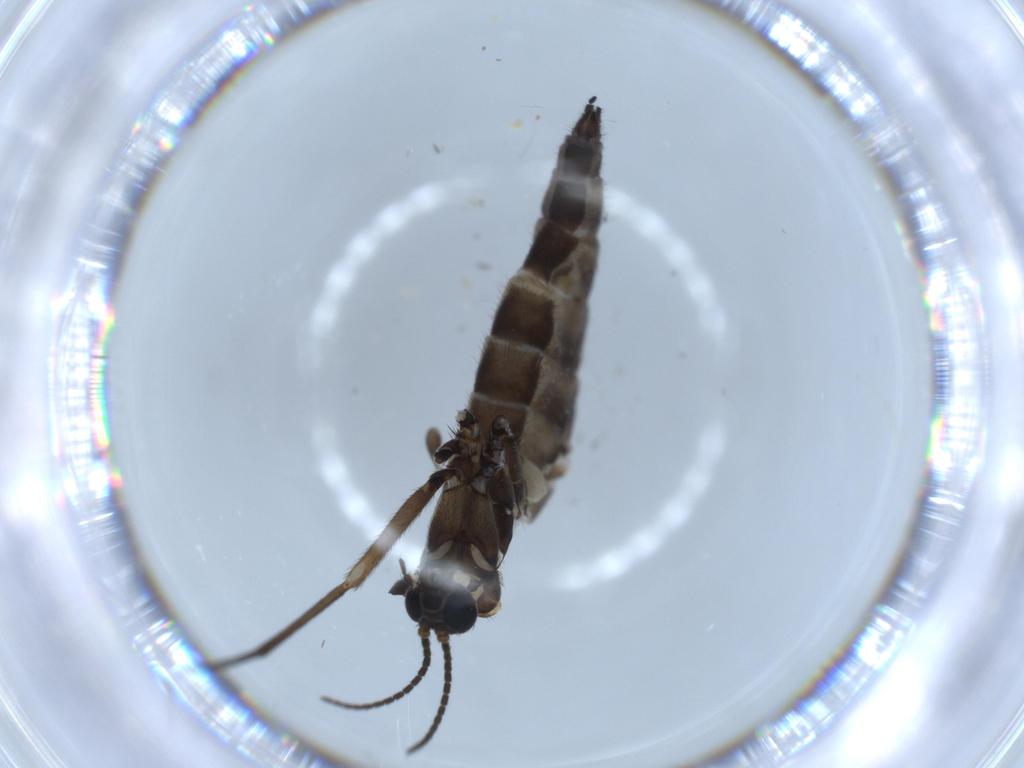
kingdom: Animalia
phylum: Arthropoda
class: Insecta
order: Diptera
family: Sciaridae
